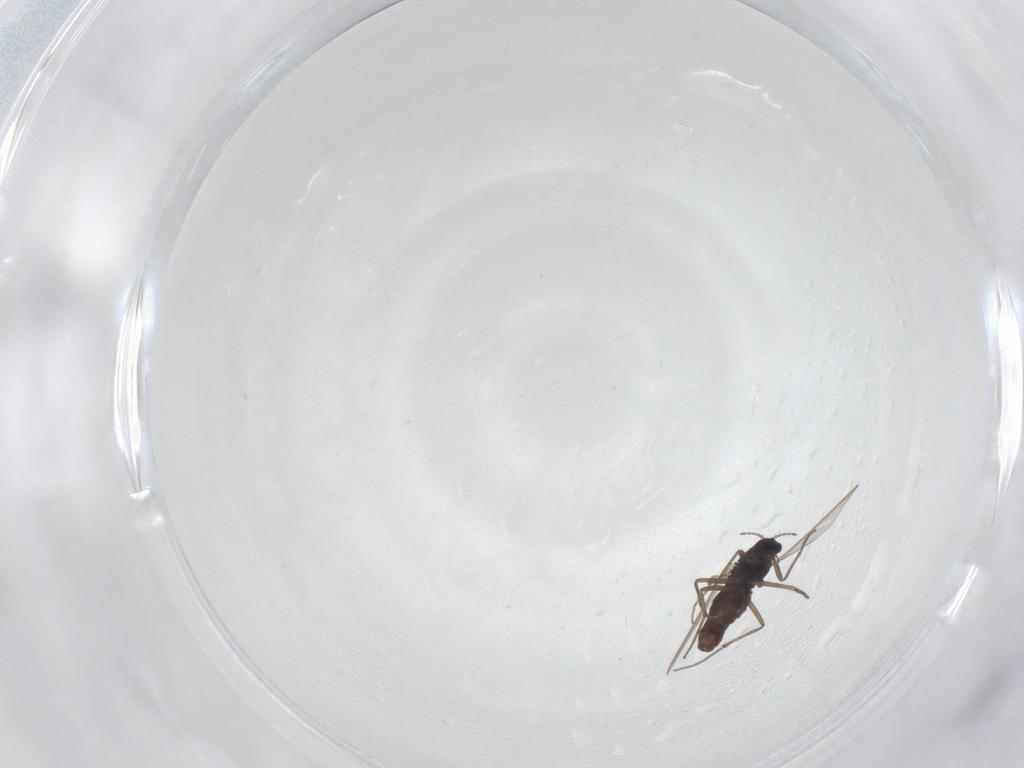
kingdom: Animalia
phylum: Arthropoda
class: Insecta
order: Diptera
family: Chironomidae
